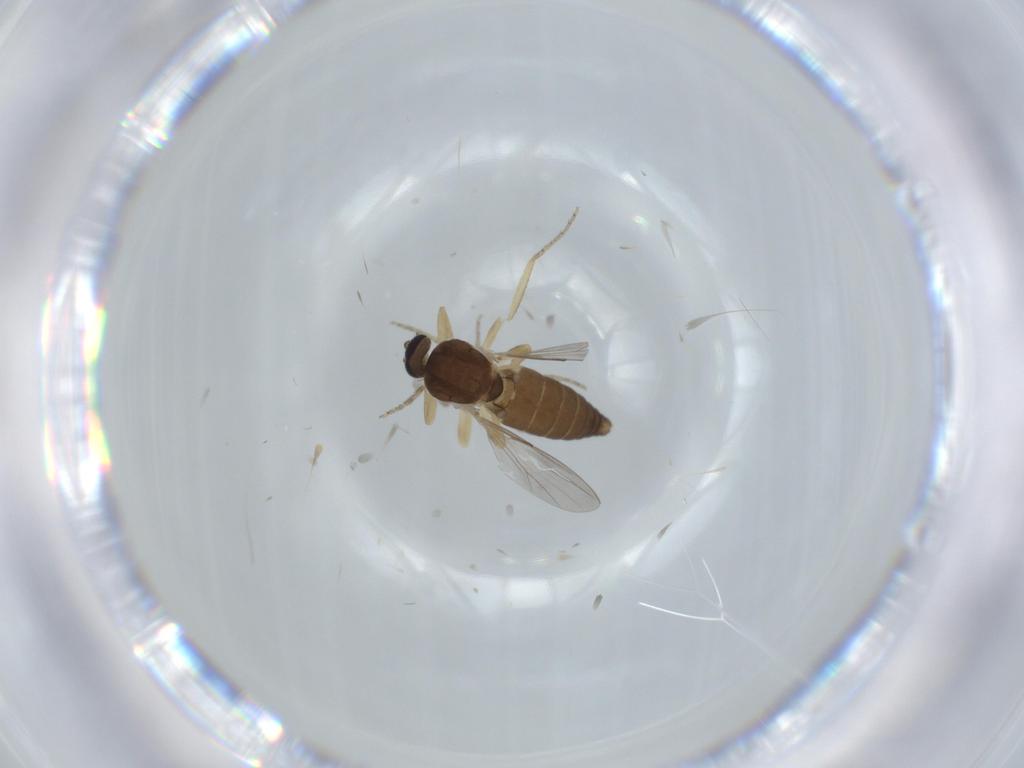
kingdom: Animalia
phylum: Arthropoda
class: Insecta
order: Diptera
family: Ceratopogonidae
